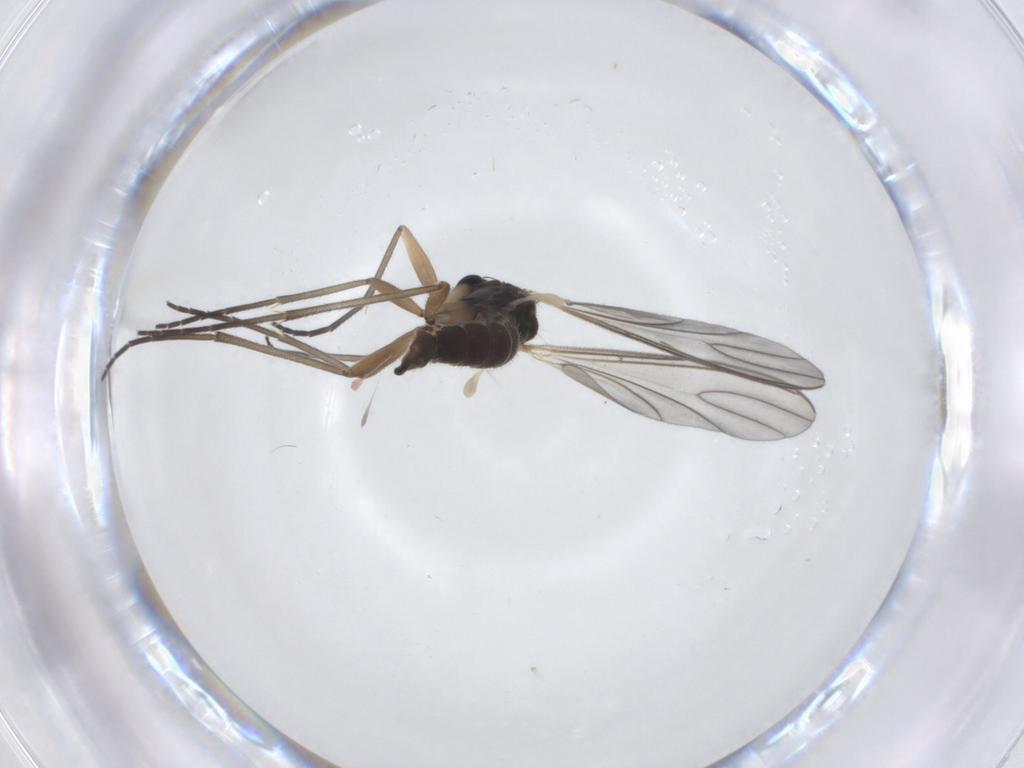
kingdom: Animalia
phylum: Arthropoda
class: Insecta
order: Diptera
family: Sciaridae
